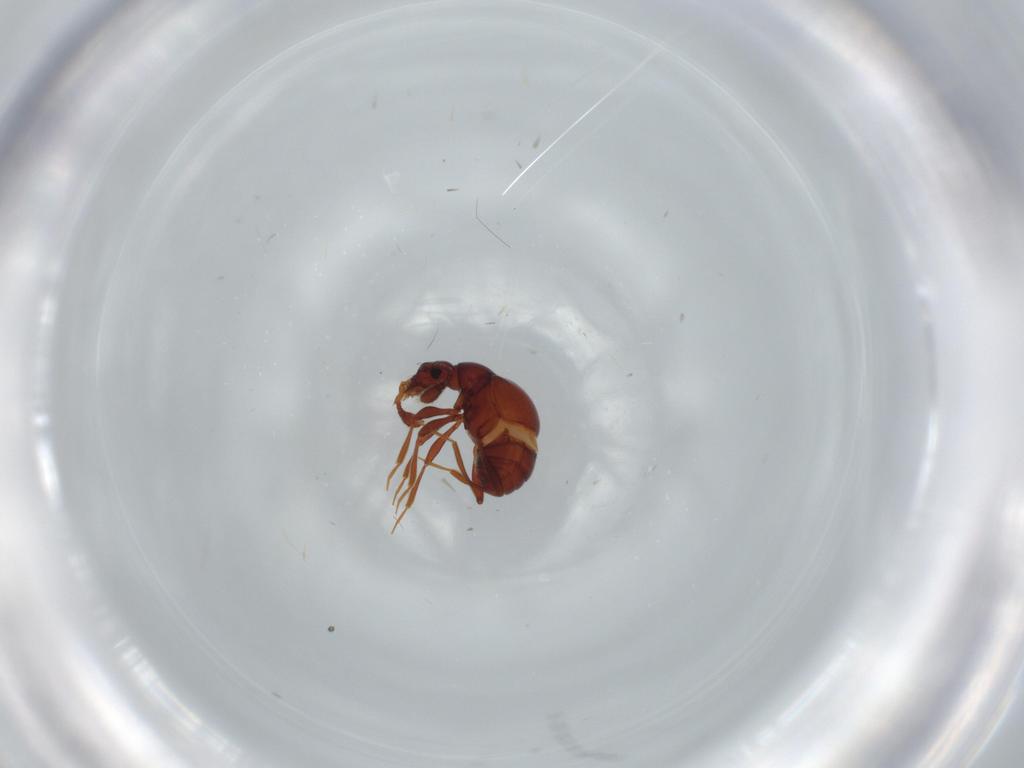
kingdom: Animalia
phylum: Arthropoda
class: Insecta
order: Coleoptera
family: Staphylinidae
